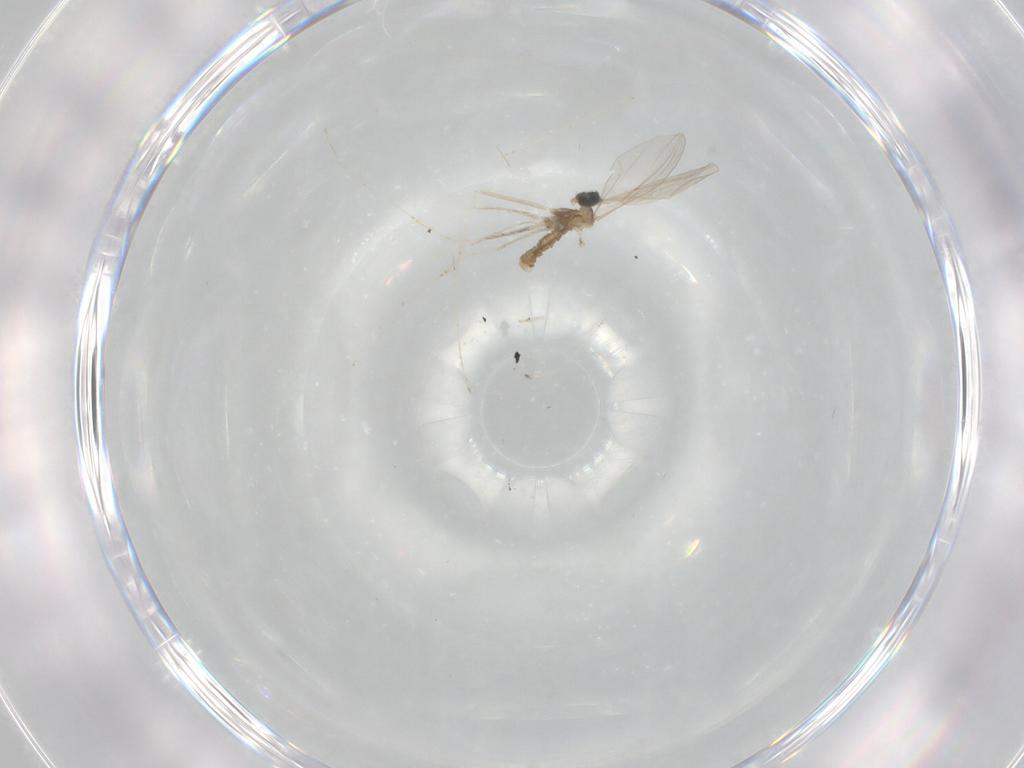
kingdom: Animalia
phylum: Arthropoda
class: Insecta
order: Diptera
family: Cecidomyiidae
